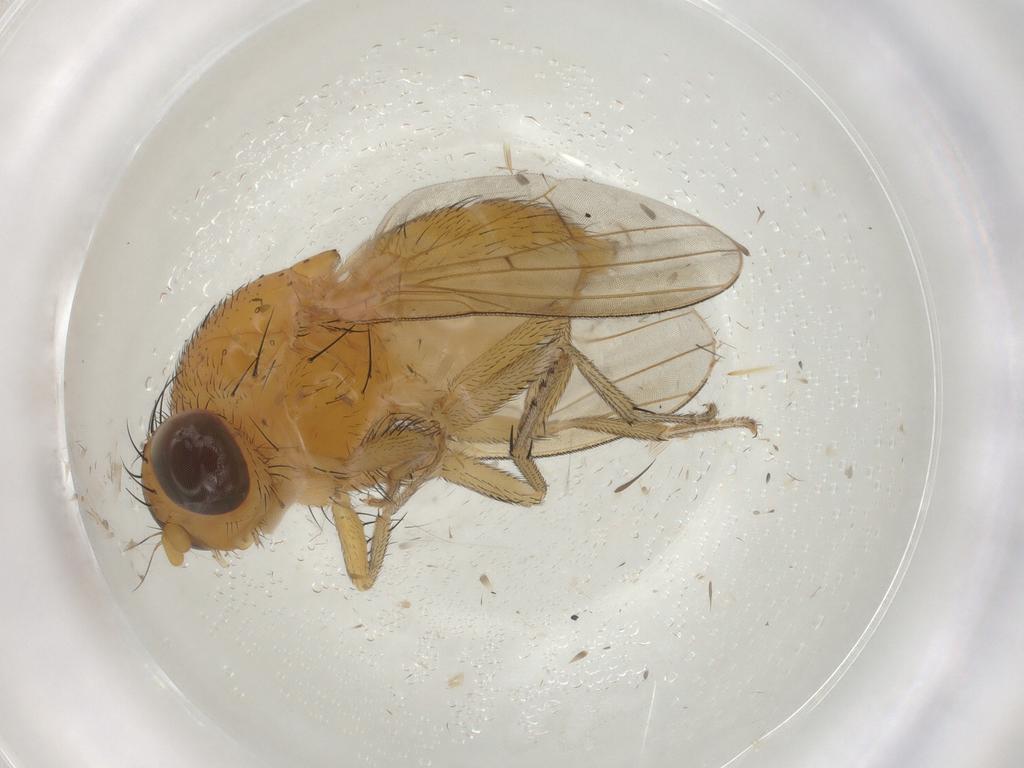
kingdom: Animalia
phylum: Arthropoda
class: Insecta
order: Diptera
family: Lauxaniidae
